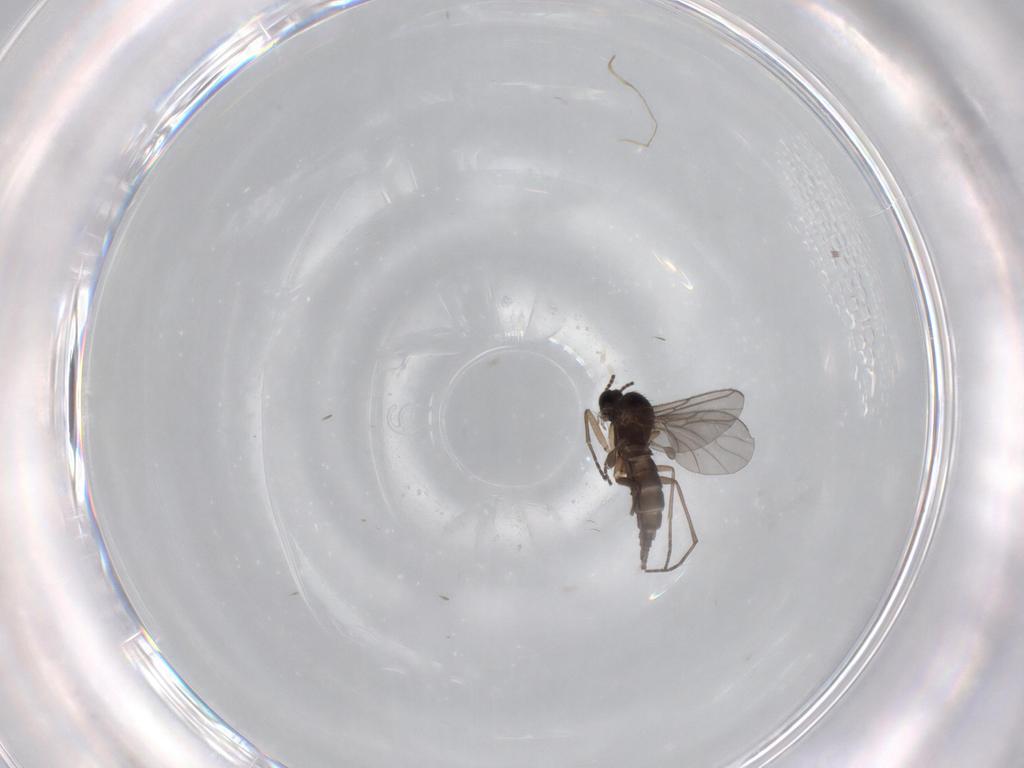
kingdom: Animalia
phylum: Arthropoda
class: Insecta
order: Diptera
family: Sciaridae
